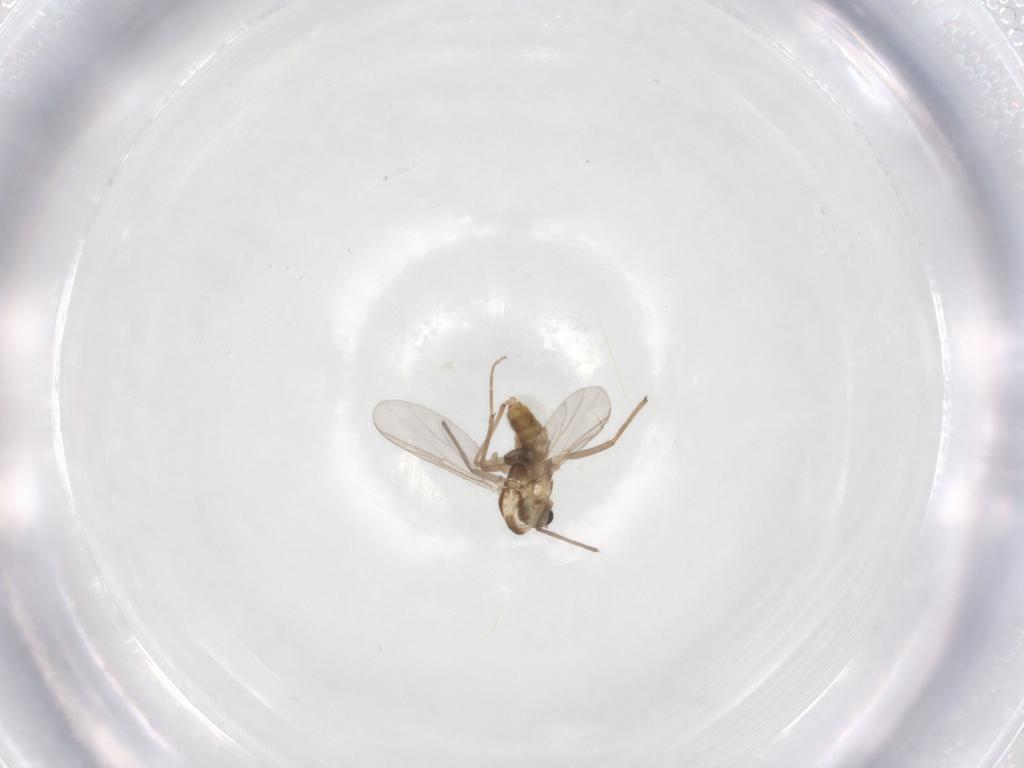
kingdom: Animalia
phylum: Arthropoda
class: Insecta
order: Diptera
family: Ceratopogonidae
